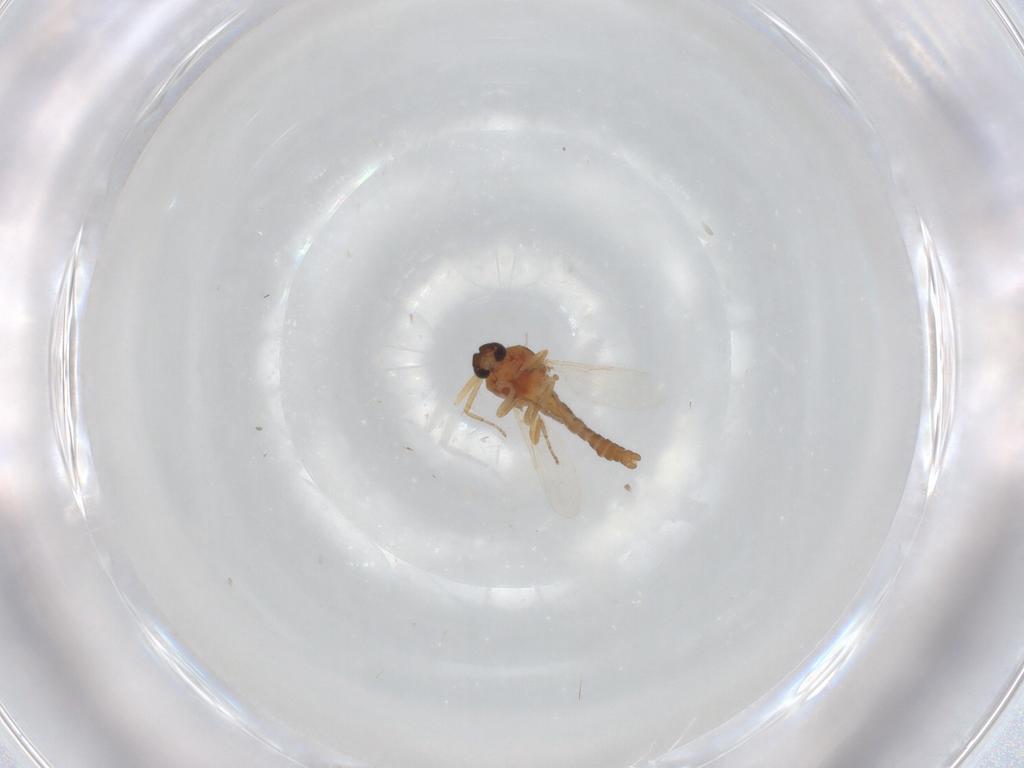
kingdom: Animalia
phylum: Arthropoda
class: Insecta
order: Diptera
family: Ceratopogonidae
